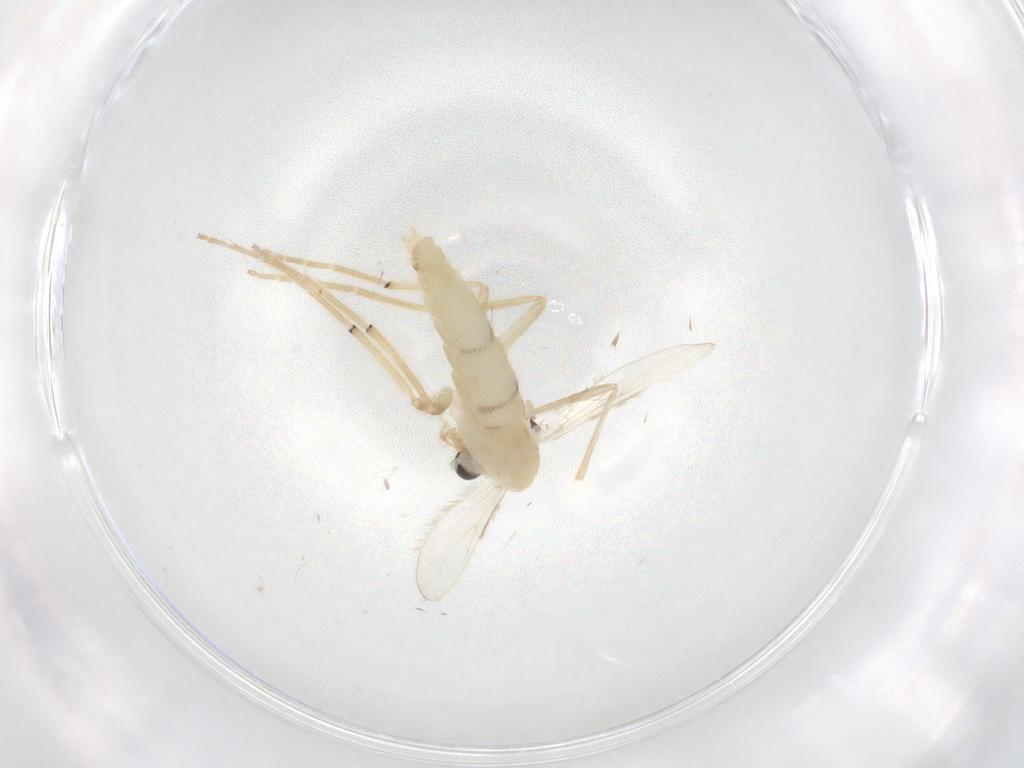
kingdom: Animalia
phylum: Arthropoda
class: Insecta
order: Diptera
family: Chironomidae
